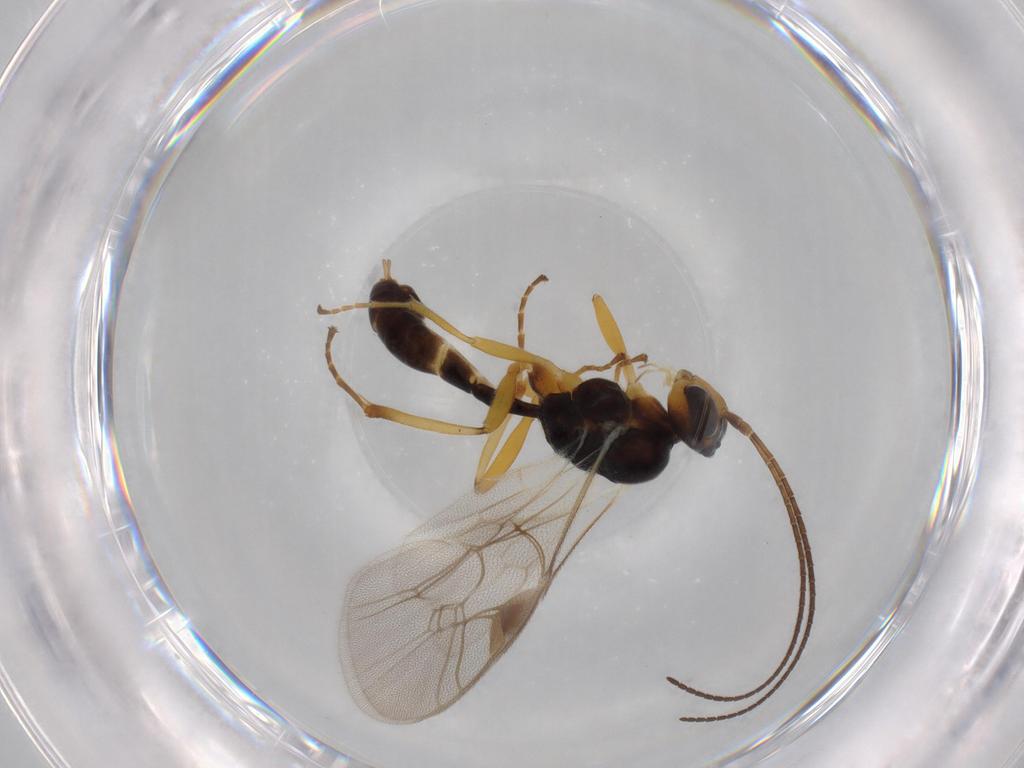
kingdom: Animalia
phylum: Arthropoda
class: Insecta
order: Hymenoptera
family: Ichneumonidae
